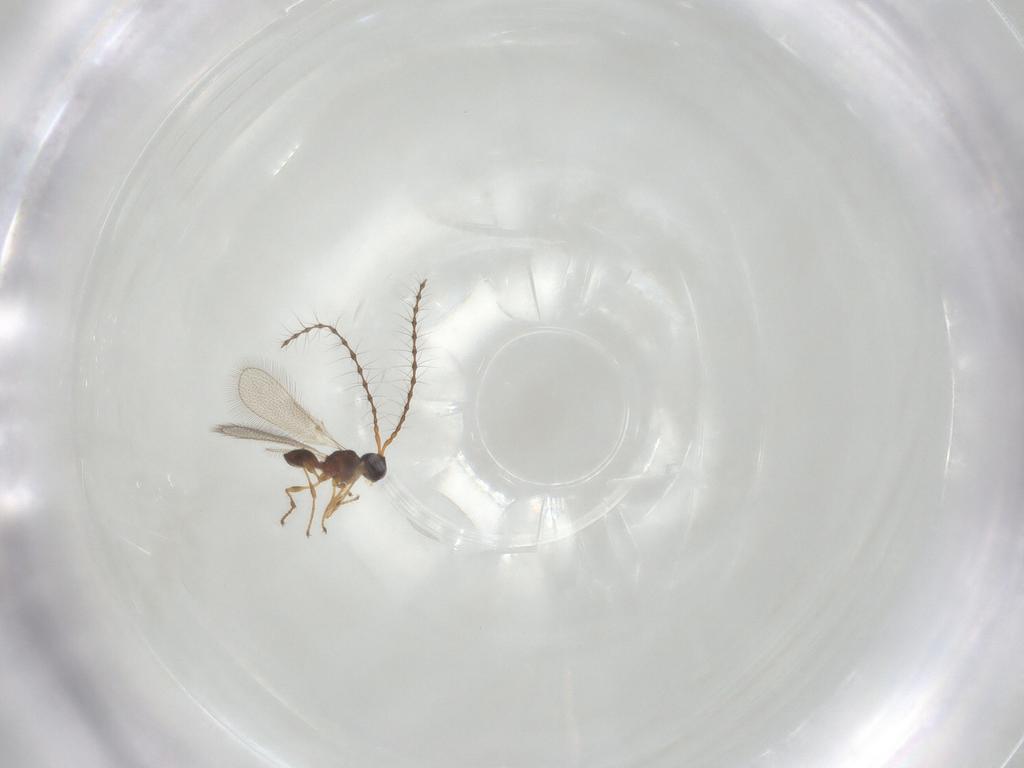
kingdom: Animalia
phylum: Arthropoda
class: Insecta
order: Hymenoptera
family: Diapriidae
